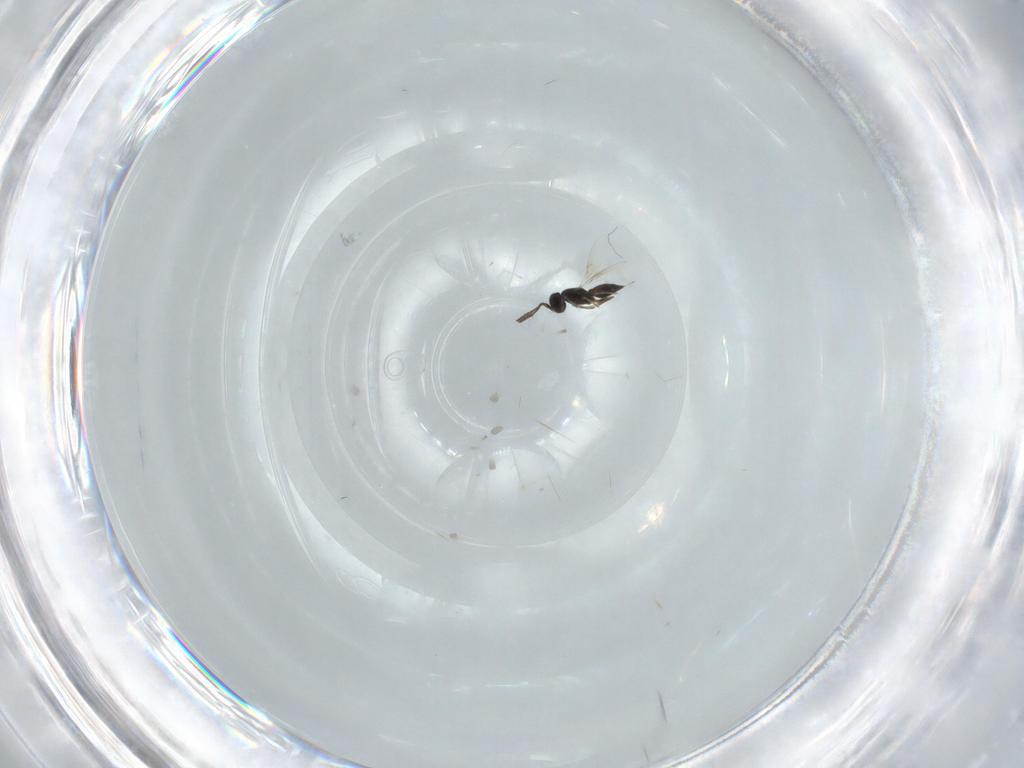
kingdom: Animalia
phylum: Arthropoda
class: Insecta
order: Hymenoptera
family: Scelionidae
